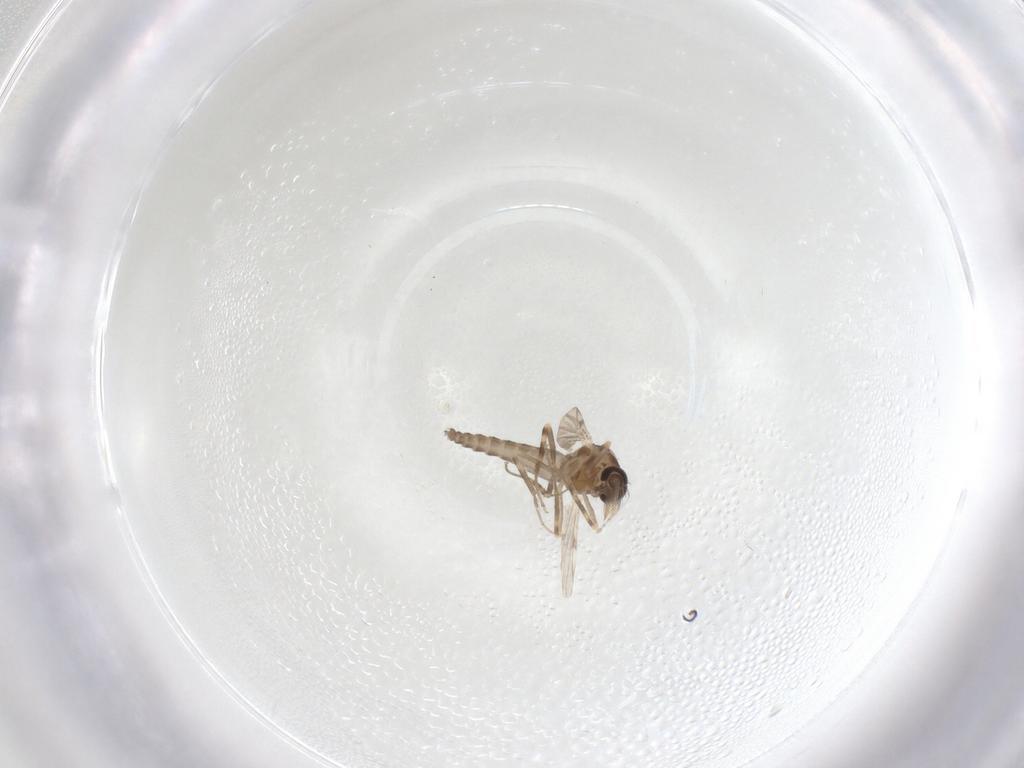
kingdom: Animalia
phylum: Arthropoda
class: Insecta
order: Diptera
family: Ceratopogonidae
